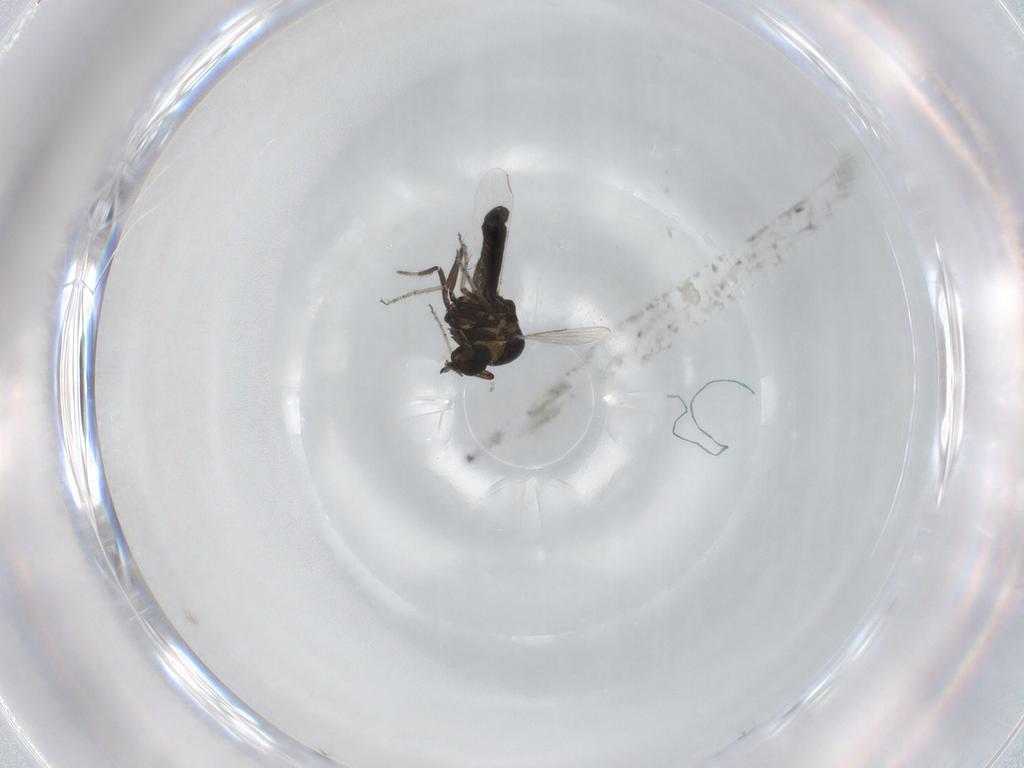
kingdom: Animalia
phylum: Arthropoda
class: Insecta
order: Diptera
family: Ceratopogonidae
